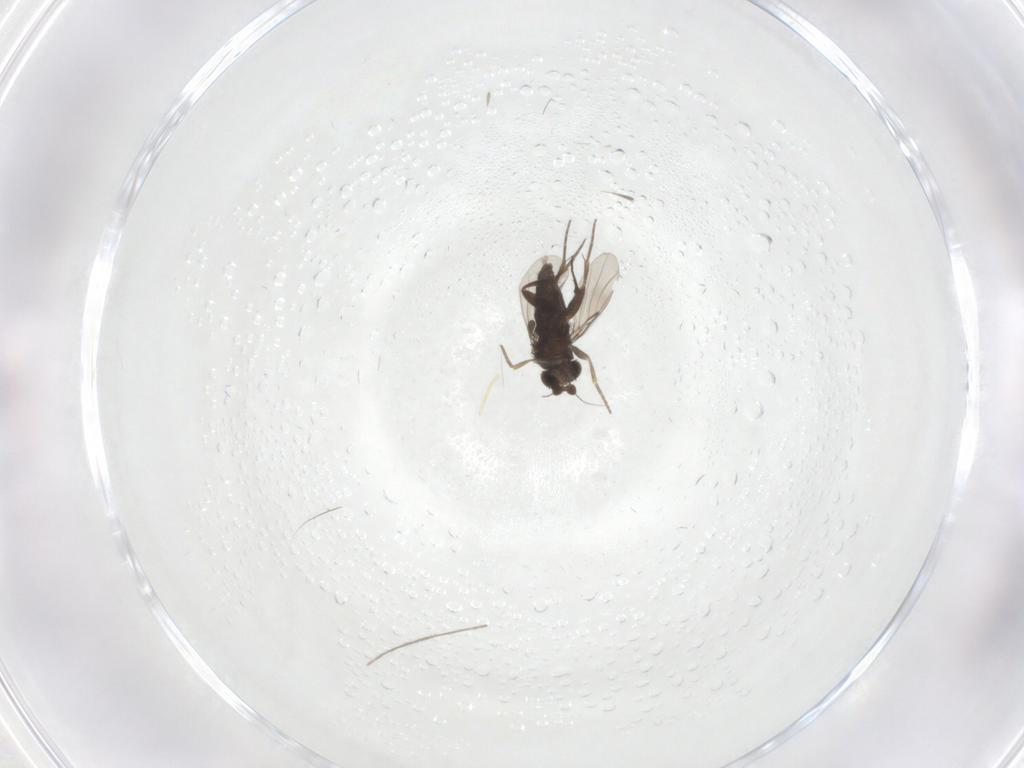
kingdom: Animalia
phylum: Arthropoda
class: Insecta
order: Diptera
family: Phoridae
